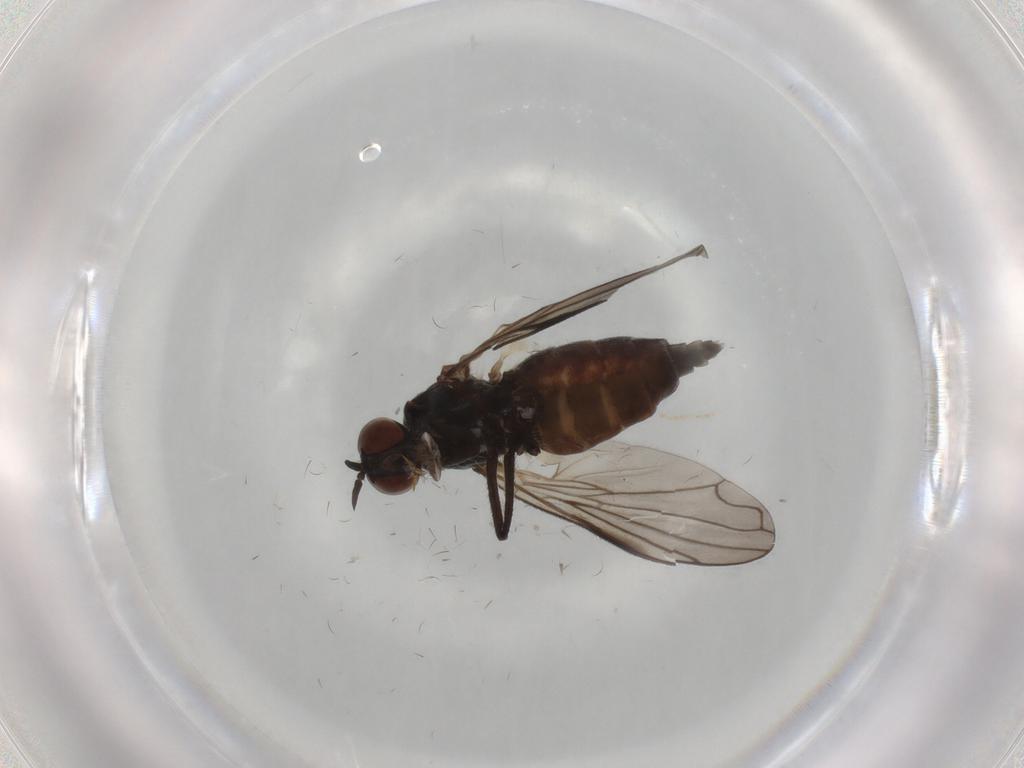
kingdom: Animalia
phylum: Arthropoda
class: Insecta
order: Diptera
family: Empididae
